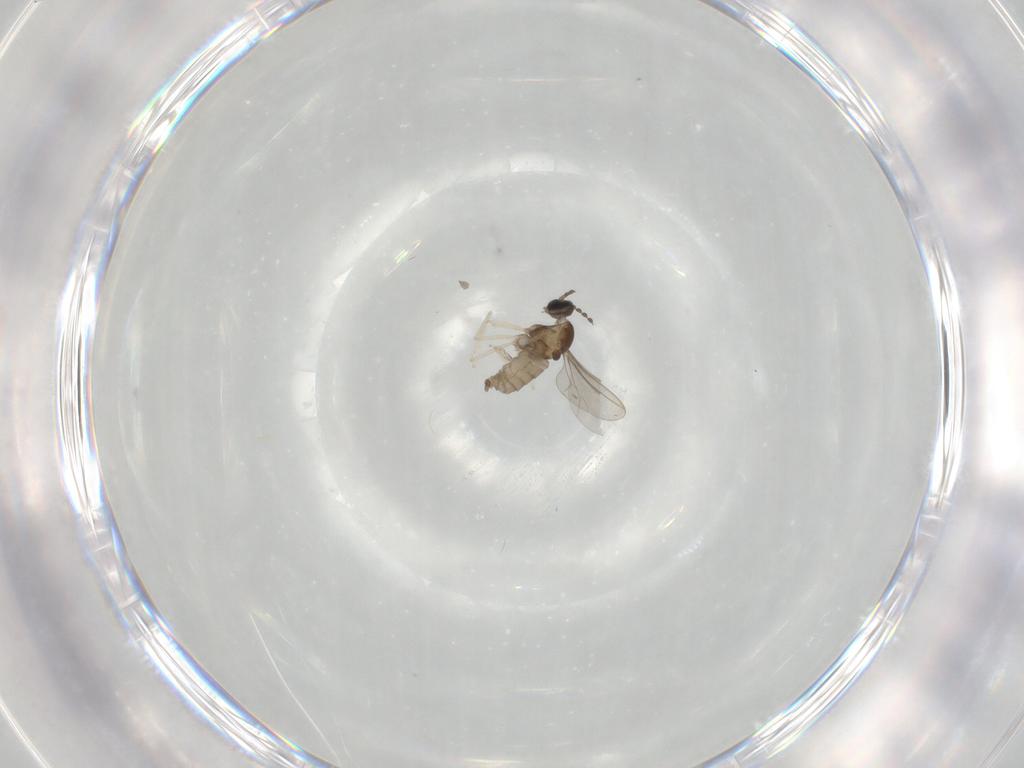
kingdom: Animalia
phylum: Arthropoda
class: Insecta
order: Diptera
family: Cecidomyiidae
